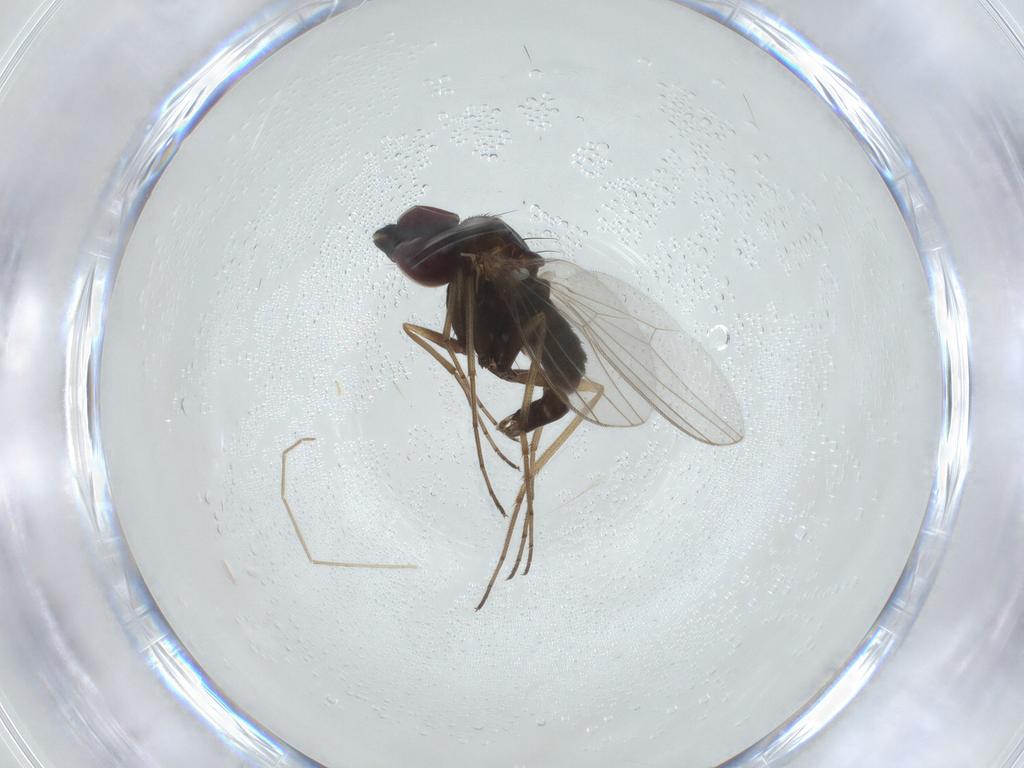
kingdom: Animalia
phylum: Arthropoda
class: Insecta
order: Diptera
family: Dolichopodidae
